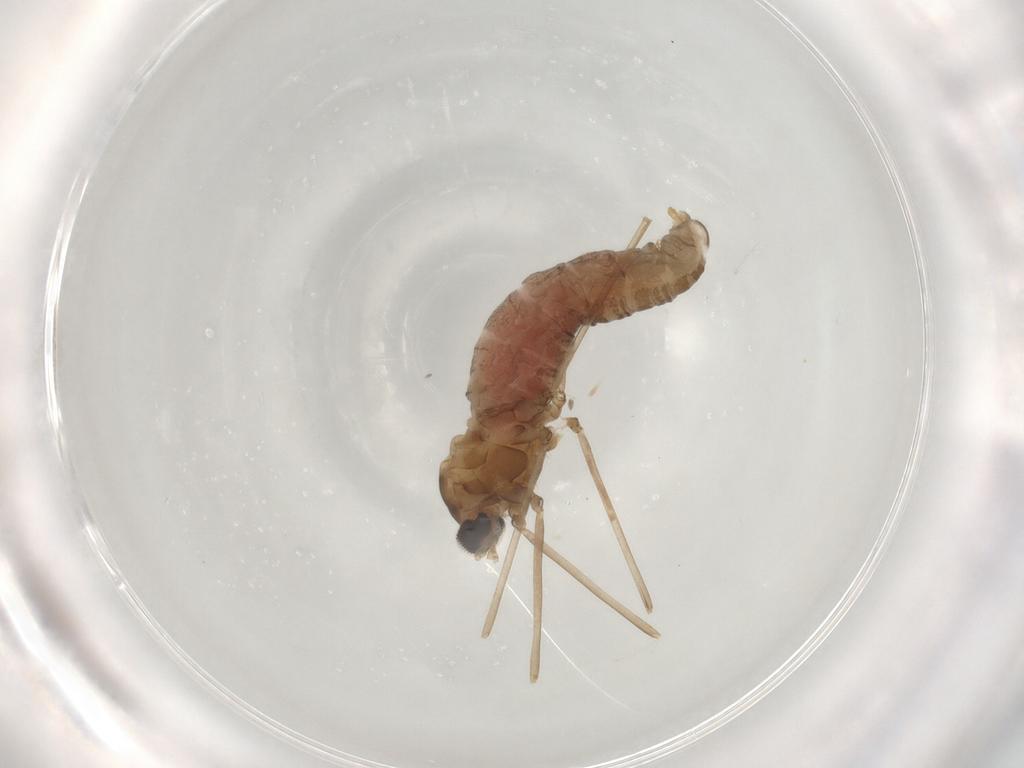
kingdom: Animalia
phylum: Arthropoda
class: Insecta
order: Diptera
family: Cecidomyiidae
